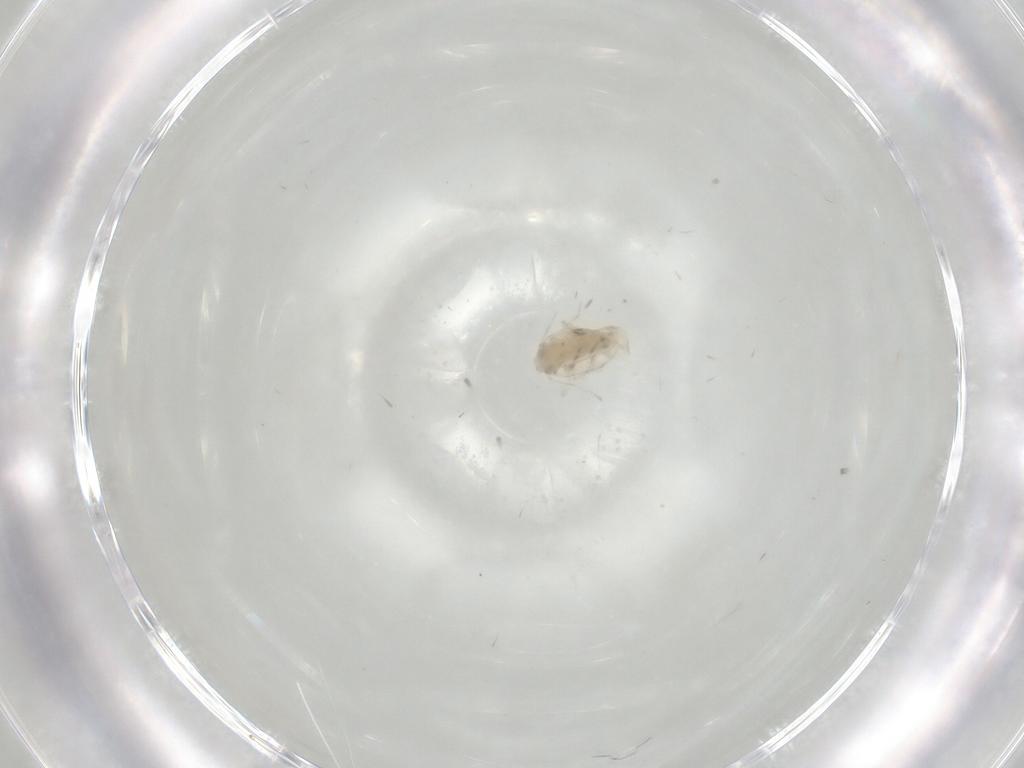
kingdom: Animalia
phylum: Arthropoda
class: Insecta
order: Hemiptera
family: Aleyrodidae
